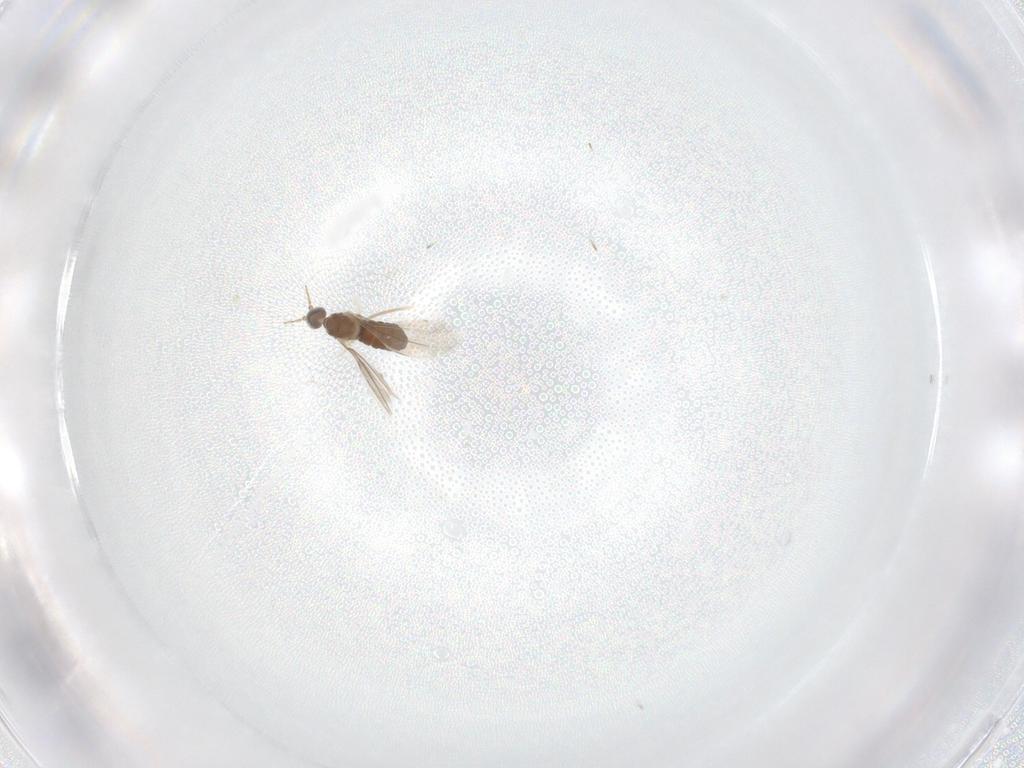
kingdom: Animalia
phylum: Arthropoda
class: Insecta
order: Diptera
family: Cecidomyiidae
